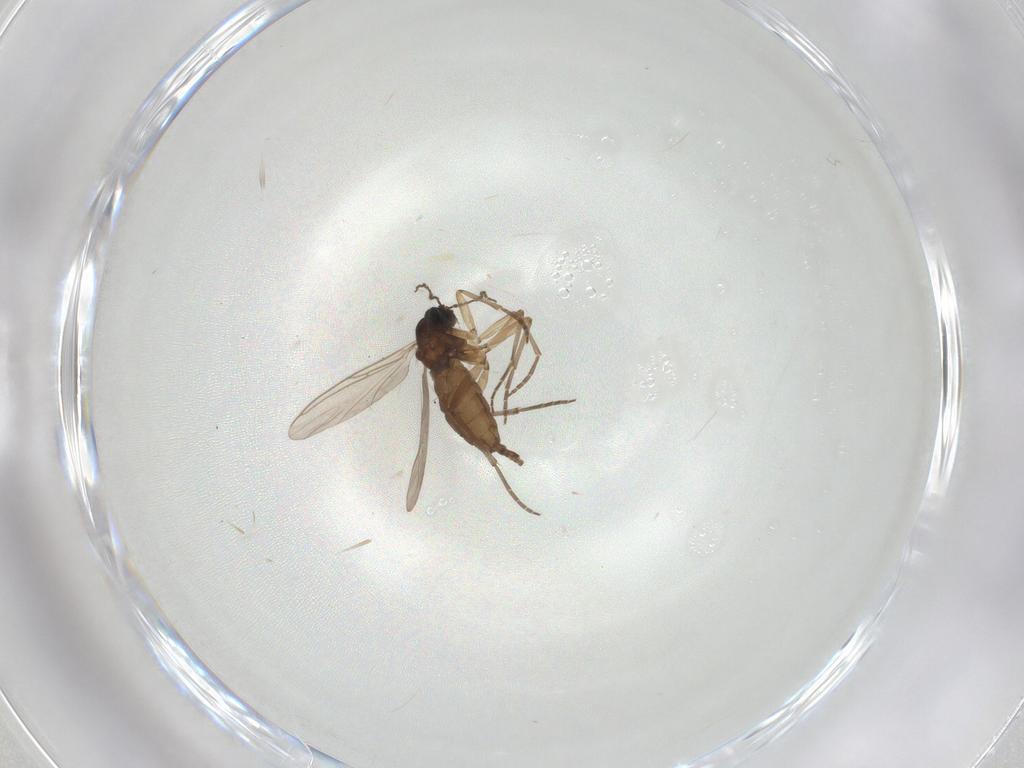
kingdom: Animalia
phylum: Arthropoda
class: Insecta
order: Diptera
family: Sciaridae
